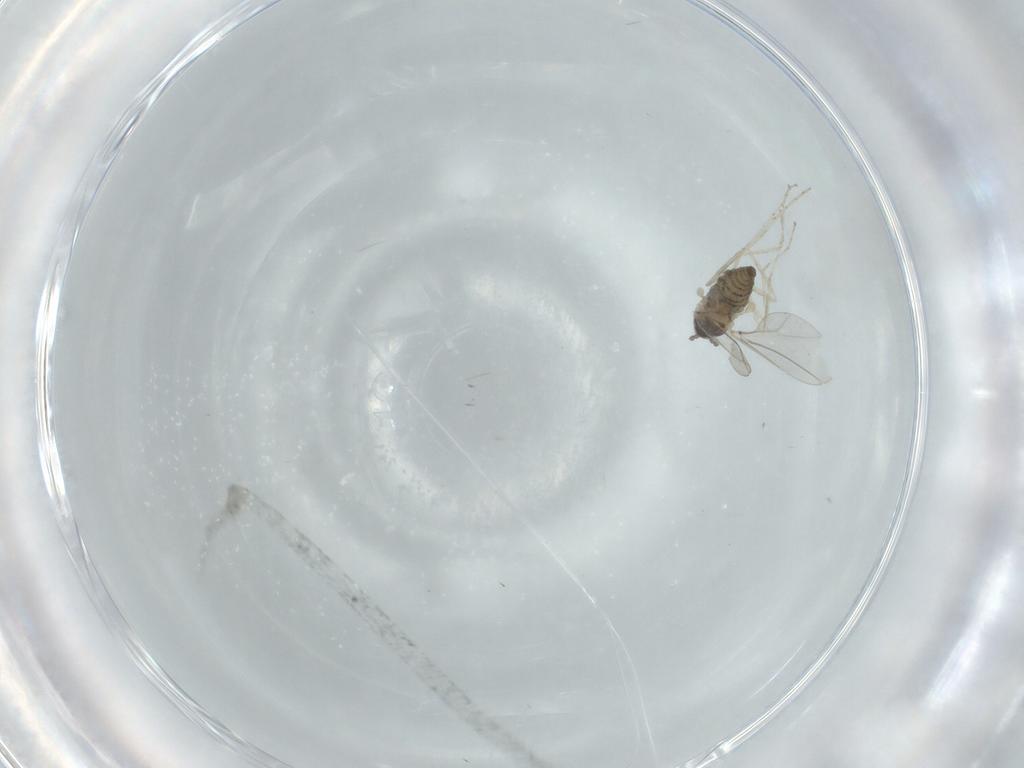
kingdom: Animalia
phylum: Arthropoda
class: Insecta
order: Diptera
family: Cecidomyiidae
